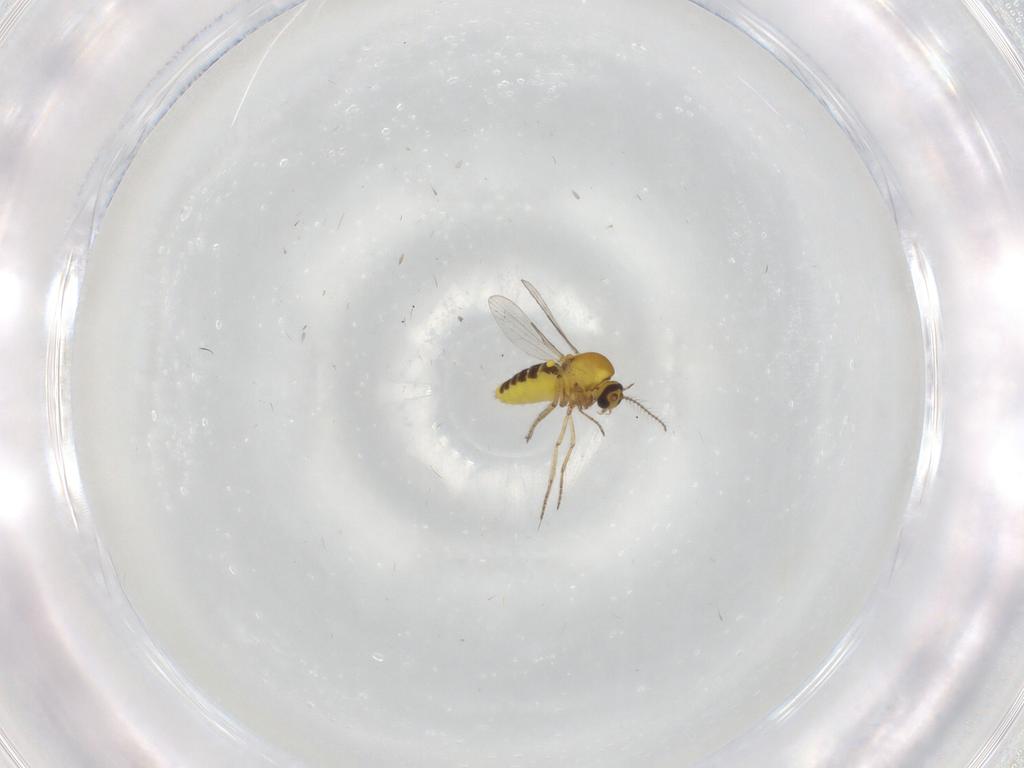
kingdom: Animalia
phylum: Arthropoda
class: Insecta
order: Diptera
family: Ceratopogonidae
